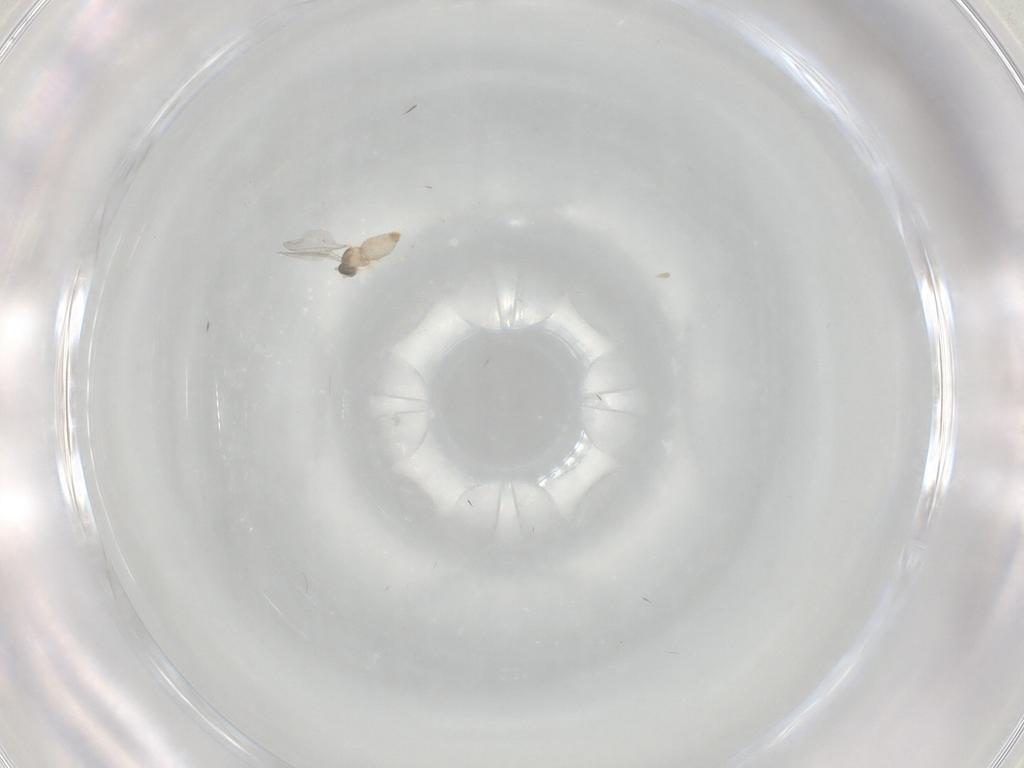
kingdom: Animalia
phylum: Arthropoda
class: Insecta
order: Diptera
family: Cecidomyiidae
